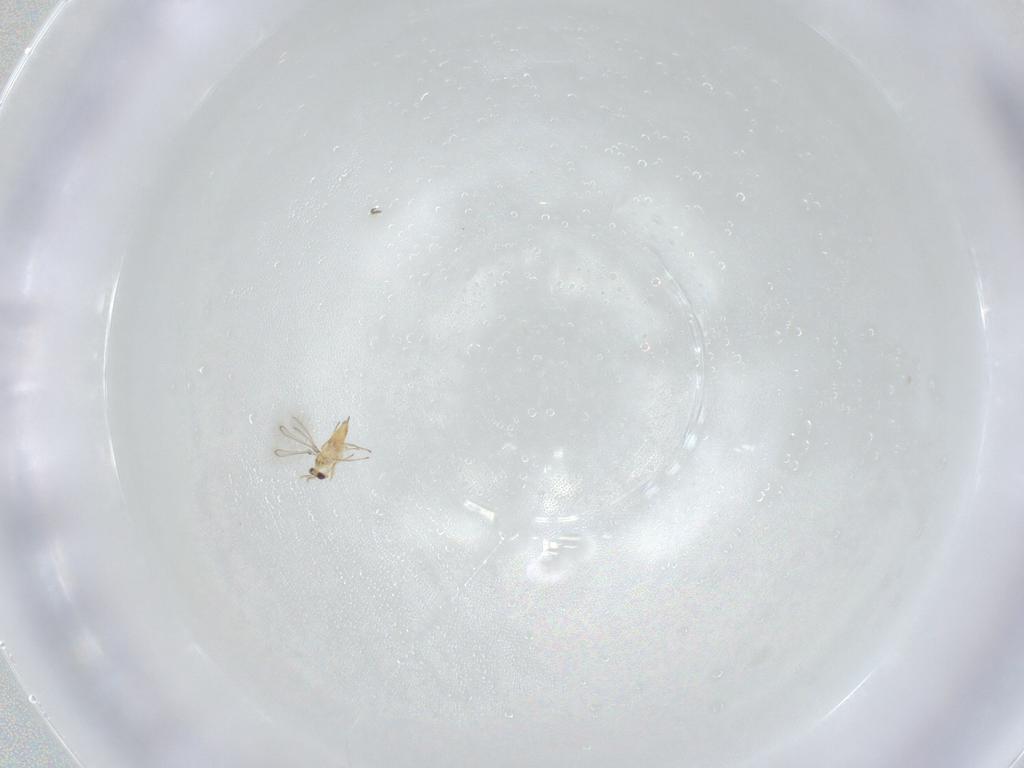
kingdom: Animalia
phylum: Arthropoda
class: Insecta
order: Hymenoptera
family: Mymaridae
